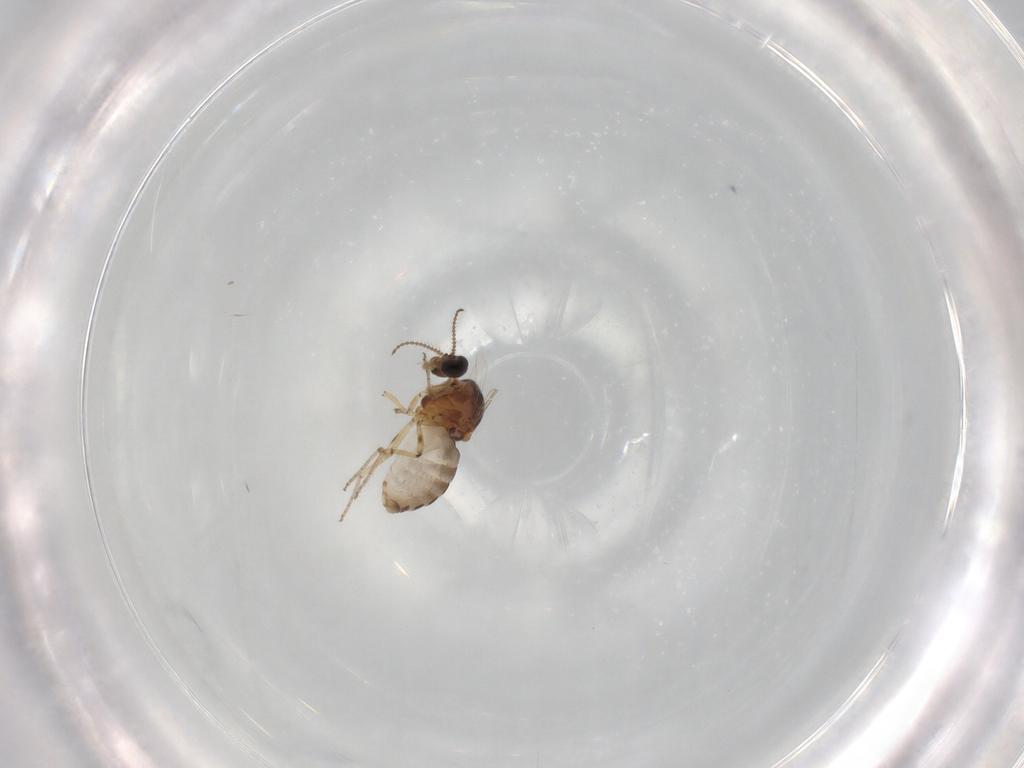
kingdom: Animalia
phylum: Arthropoda
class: Insecta
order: Diptera
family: Ceratopogonidae
